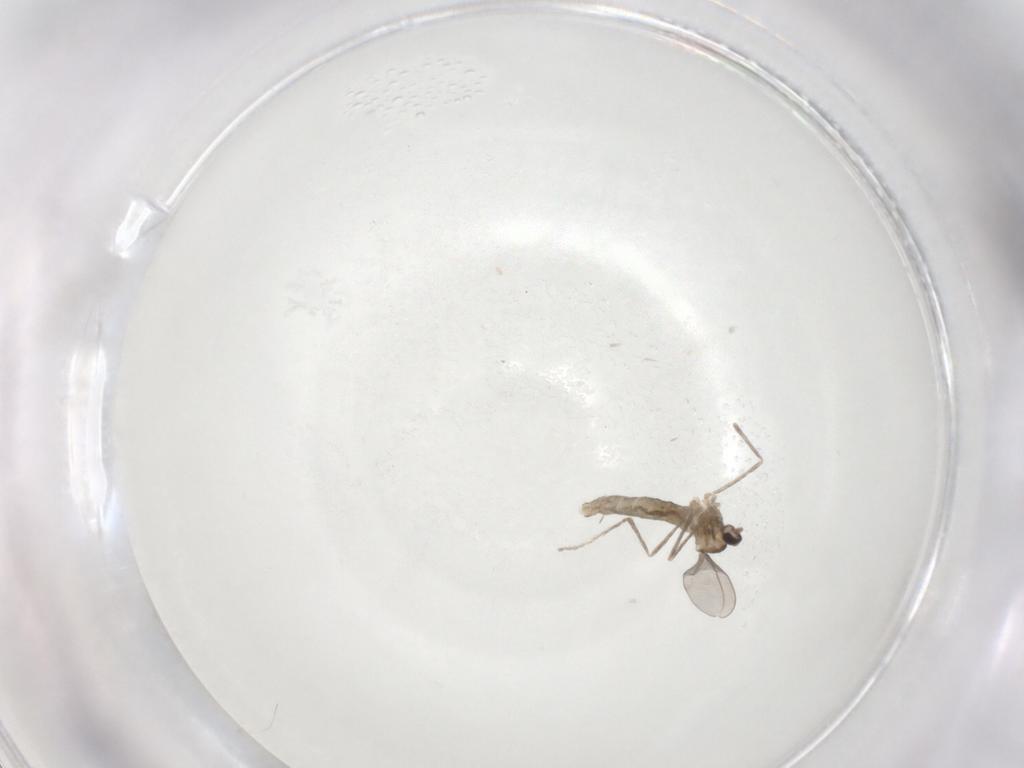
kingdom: Animalia
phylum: Arthropoda
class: Insecta
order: Diptera
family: Cecidomyiidae
